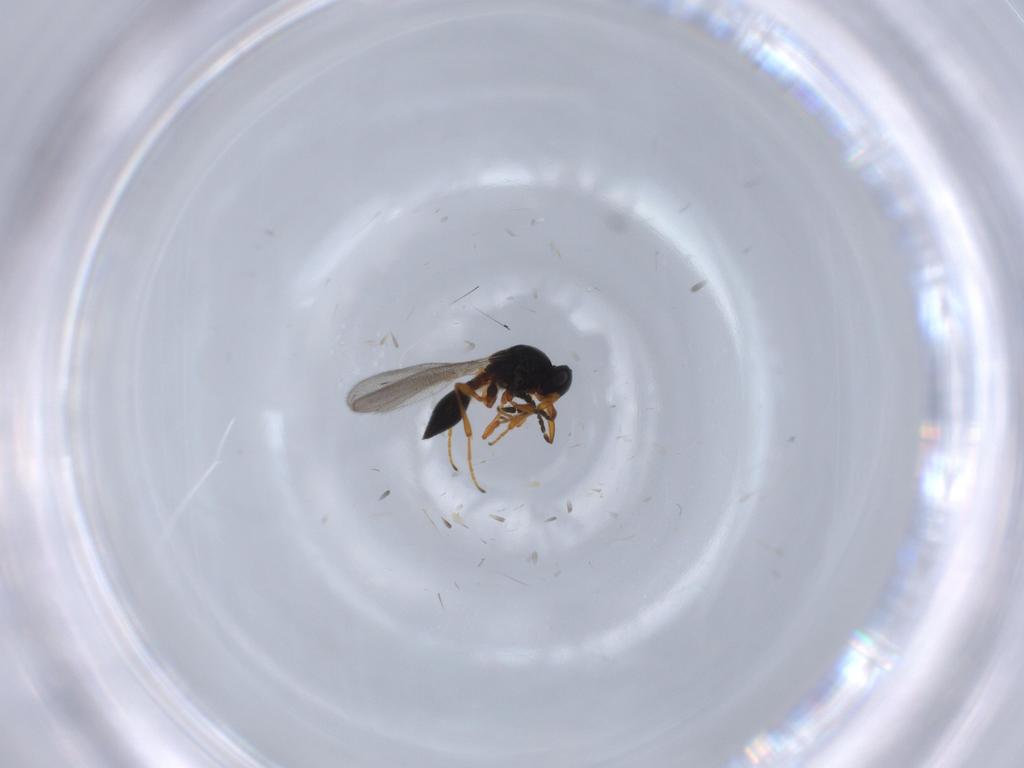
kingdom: Animalia
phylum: Arthropoda
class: Insecta
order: Hymenoptera
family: Platygastridae
